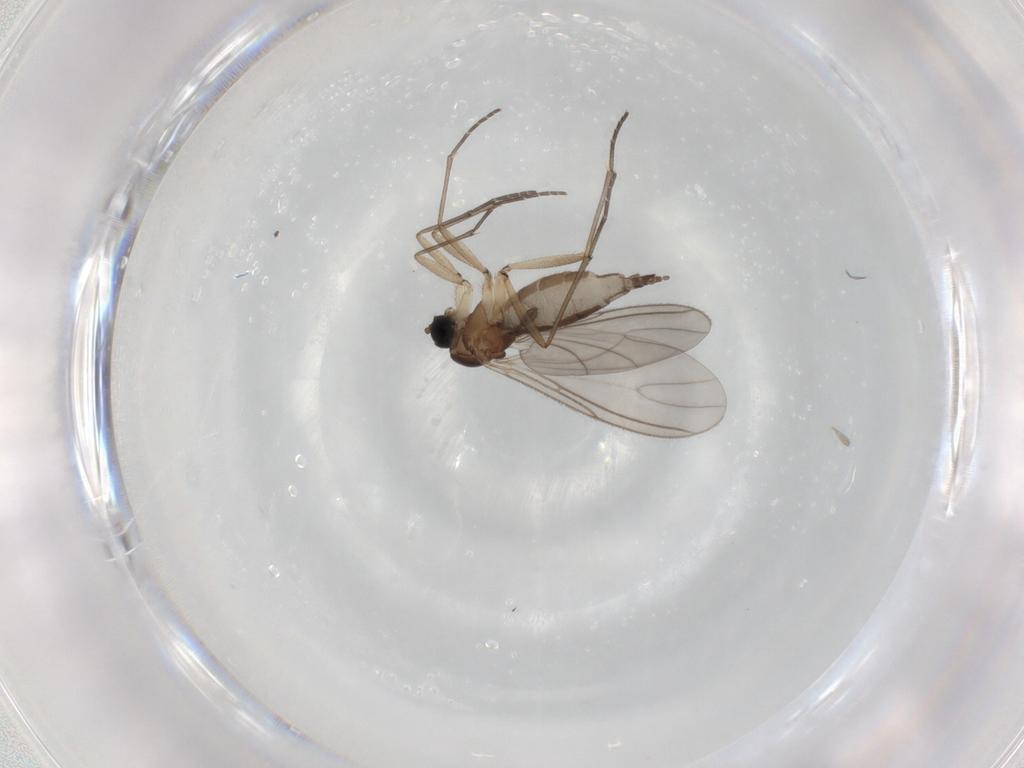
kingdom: Animalia
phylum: Arthropoda
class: Insecta
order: Diptera
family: Sciaridae
